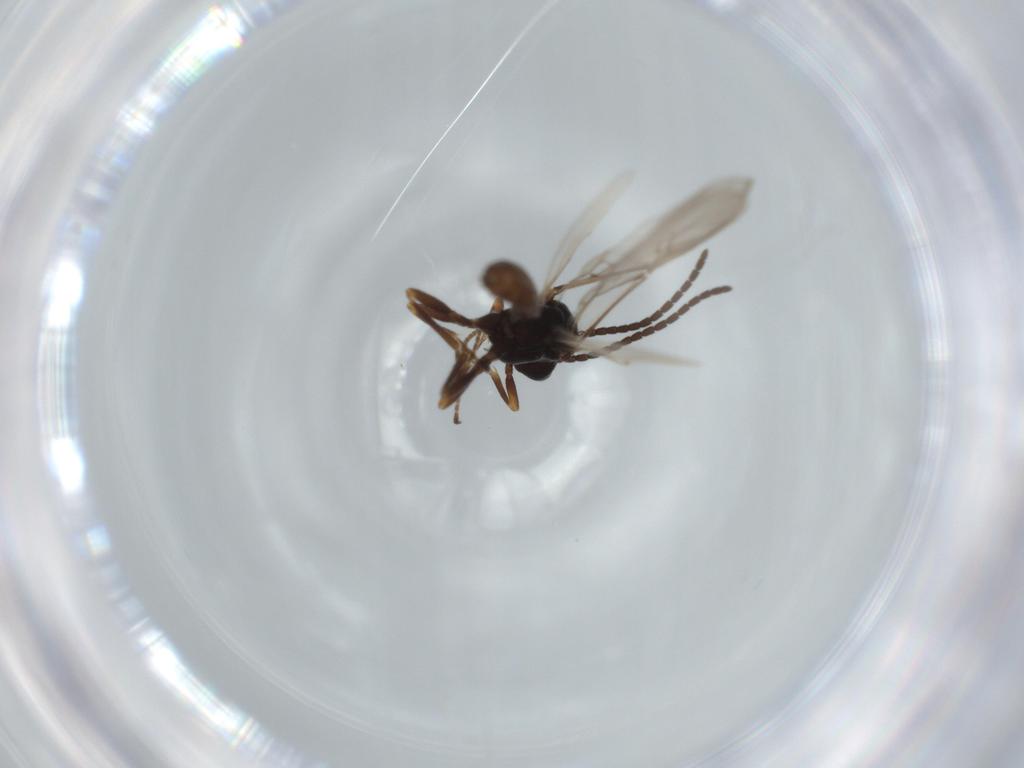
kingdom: Animalia
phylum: Arthropoda
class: Insecta
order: Hymenoptera
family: Braconidae
